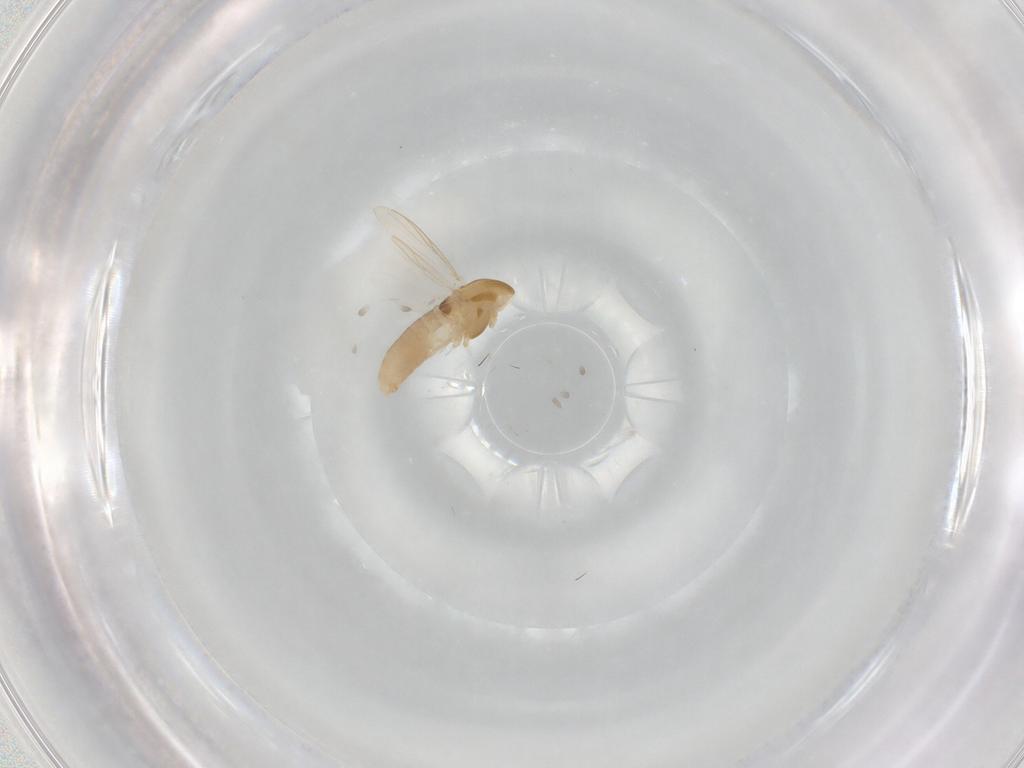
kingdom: Animalia
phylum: Arthropoda
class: Insecta
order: Diptera
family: Chironomidae
